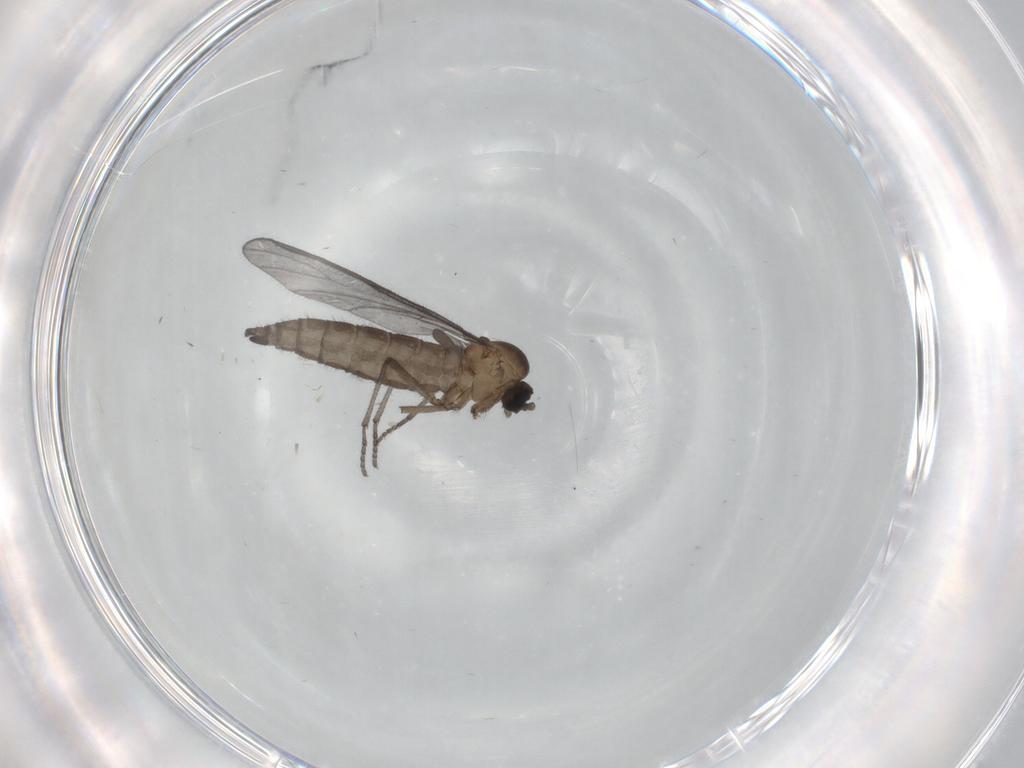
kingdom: Animalia
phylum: Arthropoda
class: Insecta
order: Diptera
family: Sciaridae
